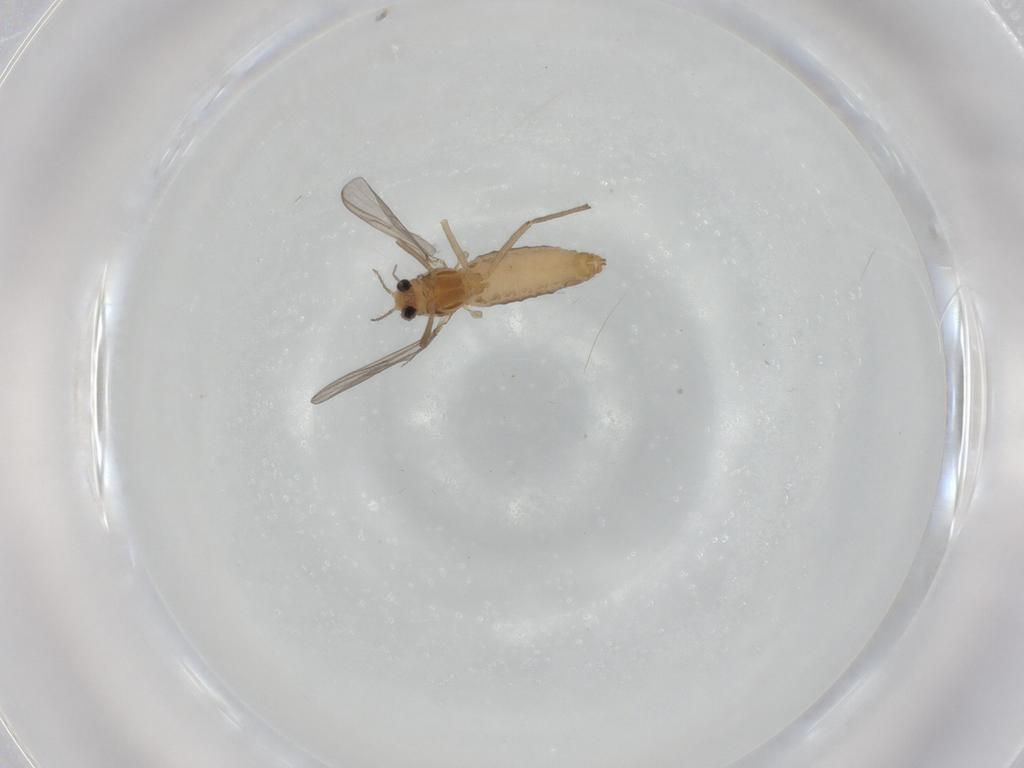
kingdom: Animalia
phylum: Arthropoda
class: Insecta
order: Diptera
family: Chironomidae
